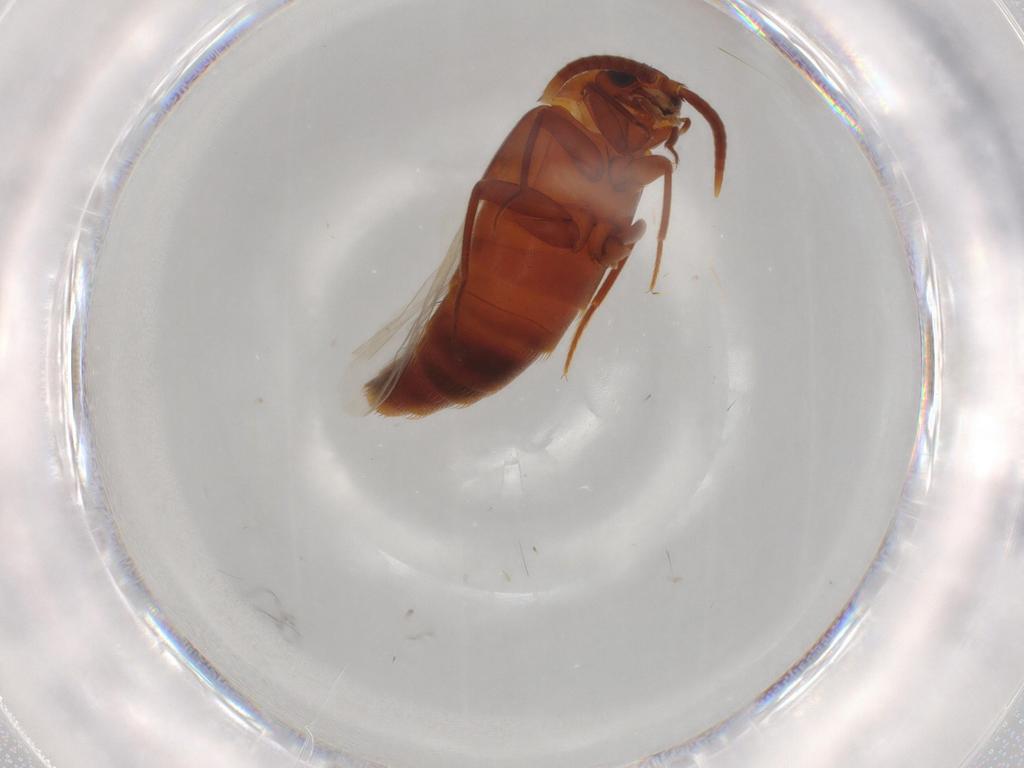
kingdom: Animalia
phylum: Arthropoda
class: Insecta
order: Coleoptera
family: Staphylinidae
